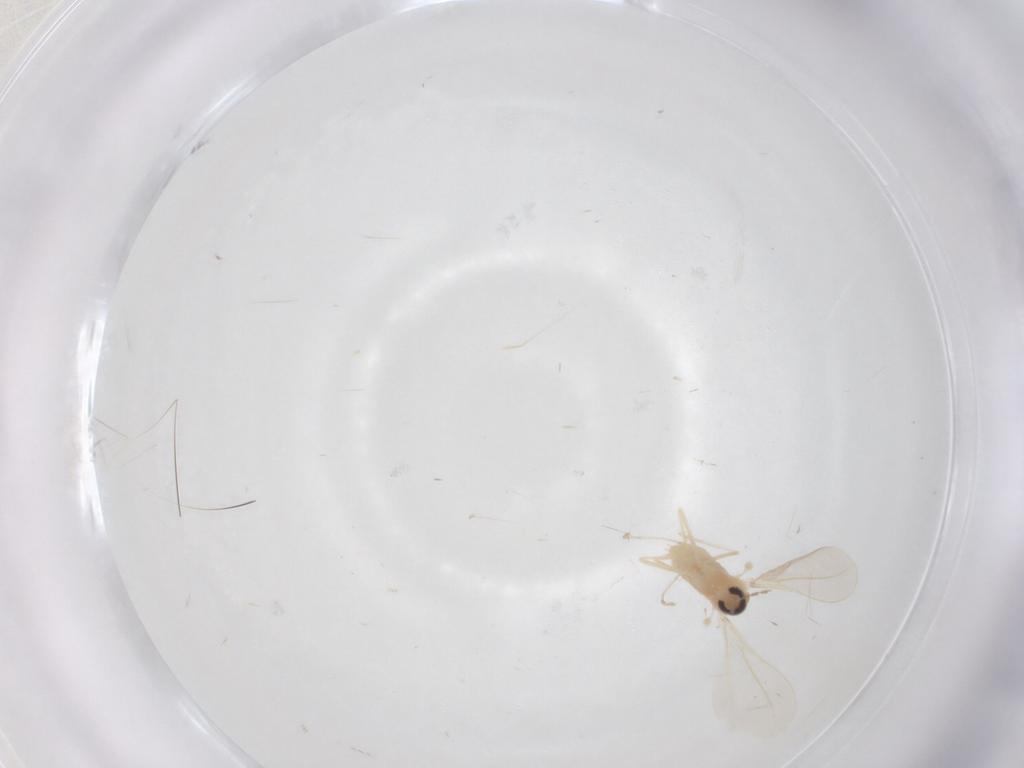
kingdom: Animalia
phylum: Arthropoda
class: Insecta
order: Diptera
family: Cecidomyiidae
